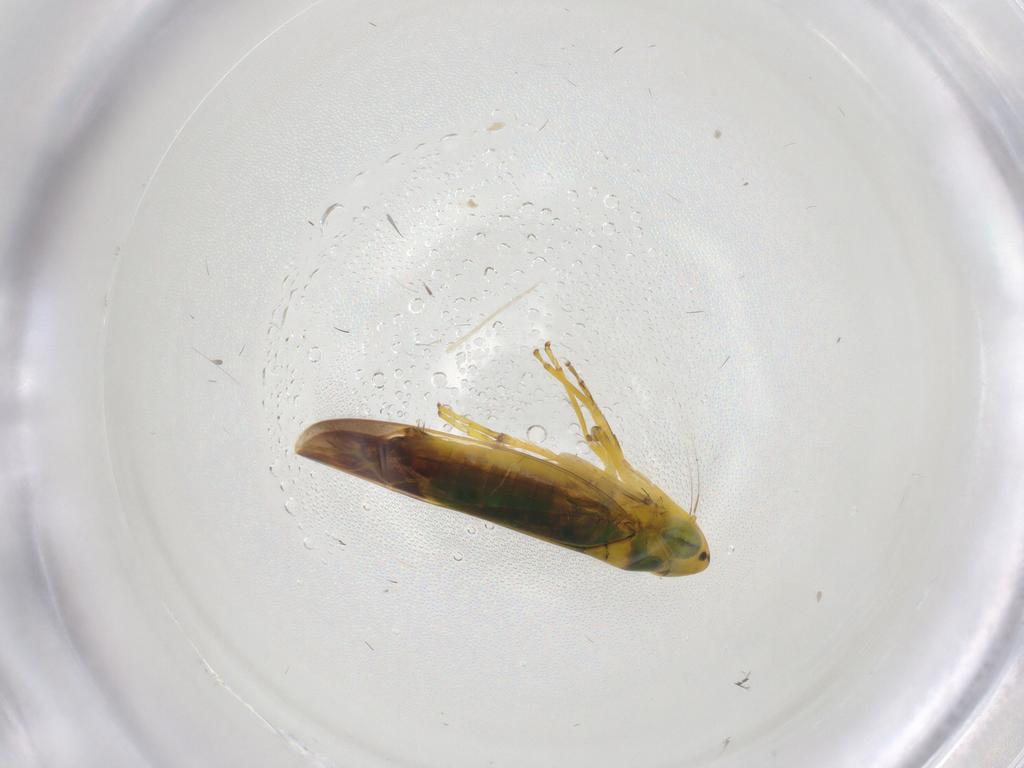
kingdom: Animalia
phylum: Arthropoda
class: Insecta
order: Hemiptera
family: Cicadellidae
